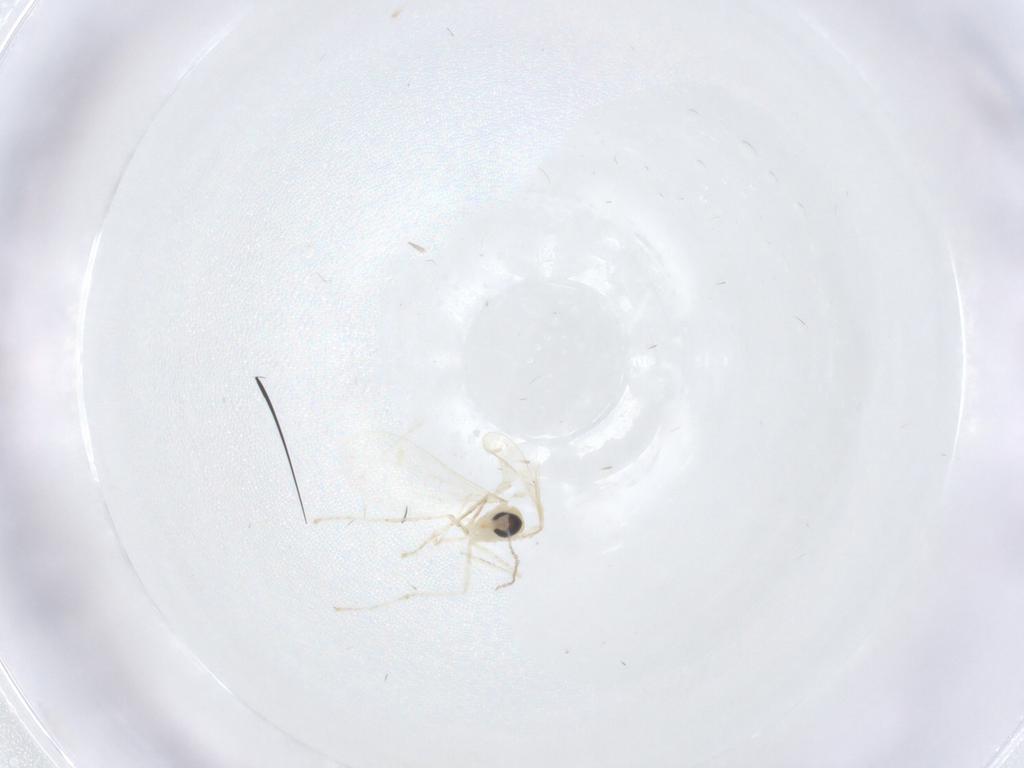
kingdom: Animalia
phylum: Arthropoda
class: Insecta
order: Diptera
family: Cecidomyiidae
